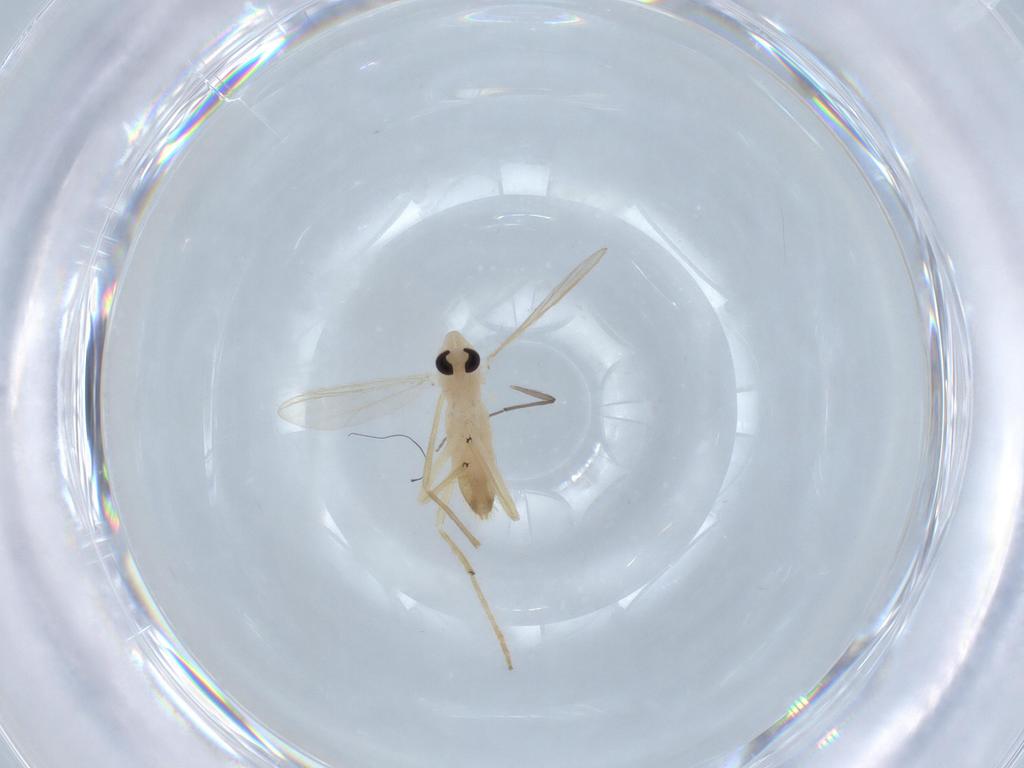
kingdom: Animalia
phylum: Arthropoda
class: Insecta
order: Diptera
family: Chironomidae
